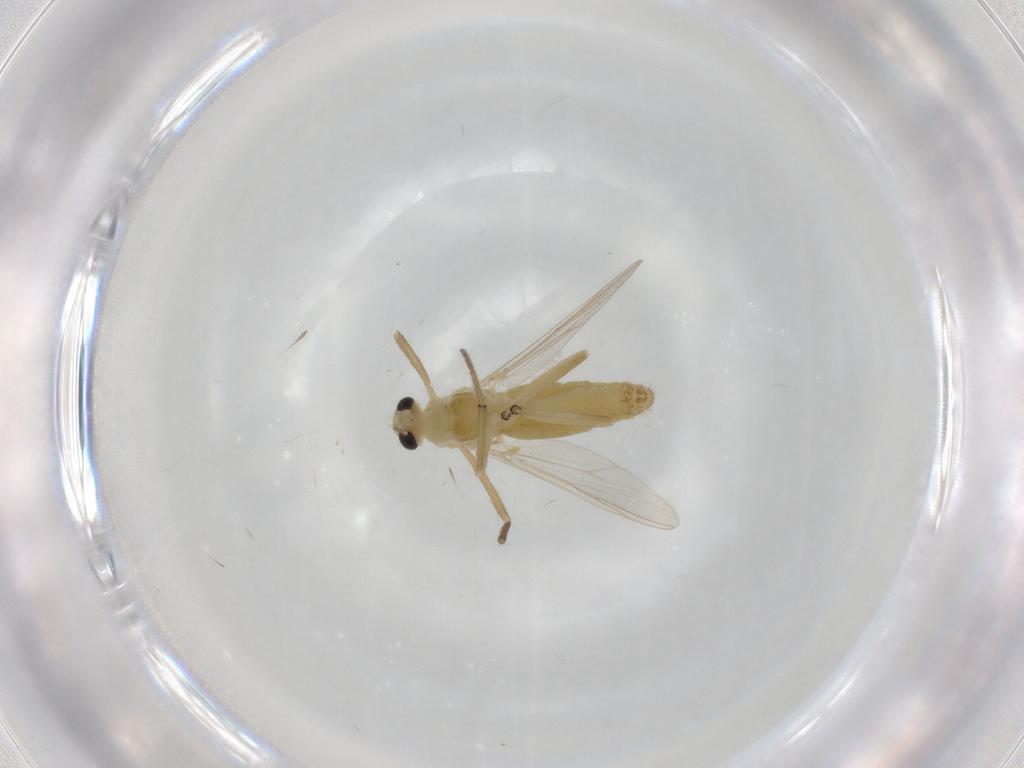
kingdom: Animalia
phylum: Arthropoda
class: Insecta
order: Diptera
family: Chironomidae
